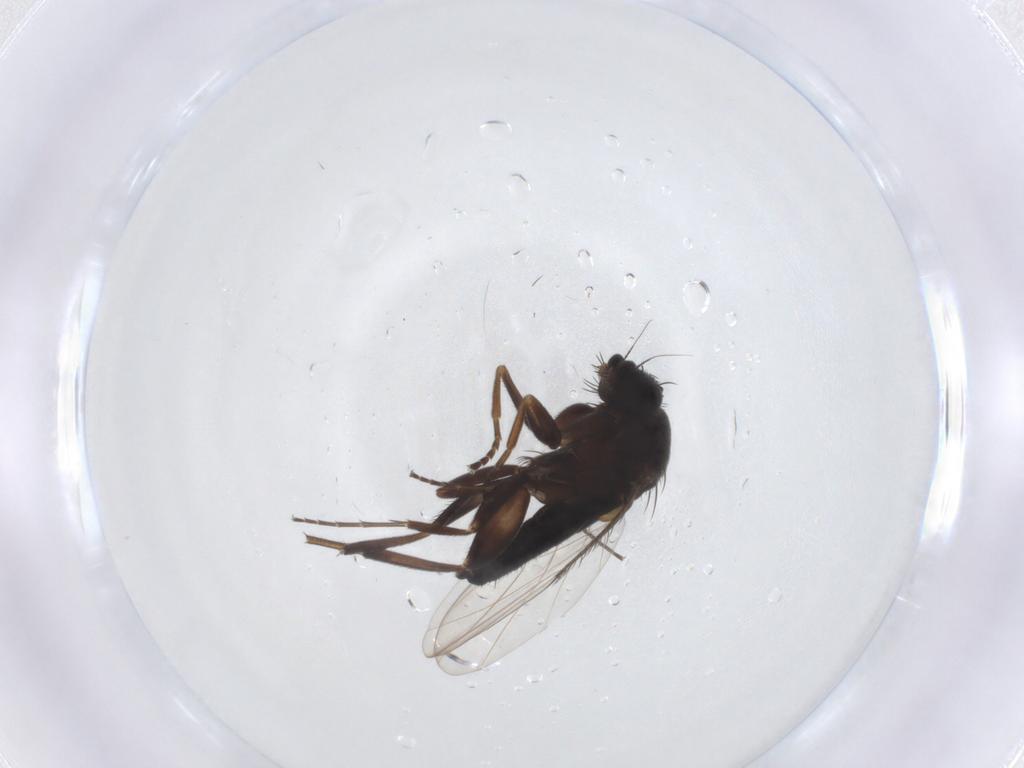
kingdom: Animalia
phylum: Arthropoda
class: Insecta
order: Diptera
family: Phoridae
